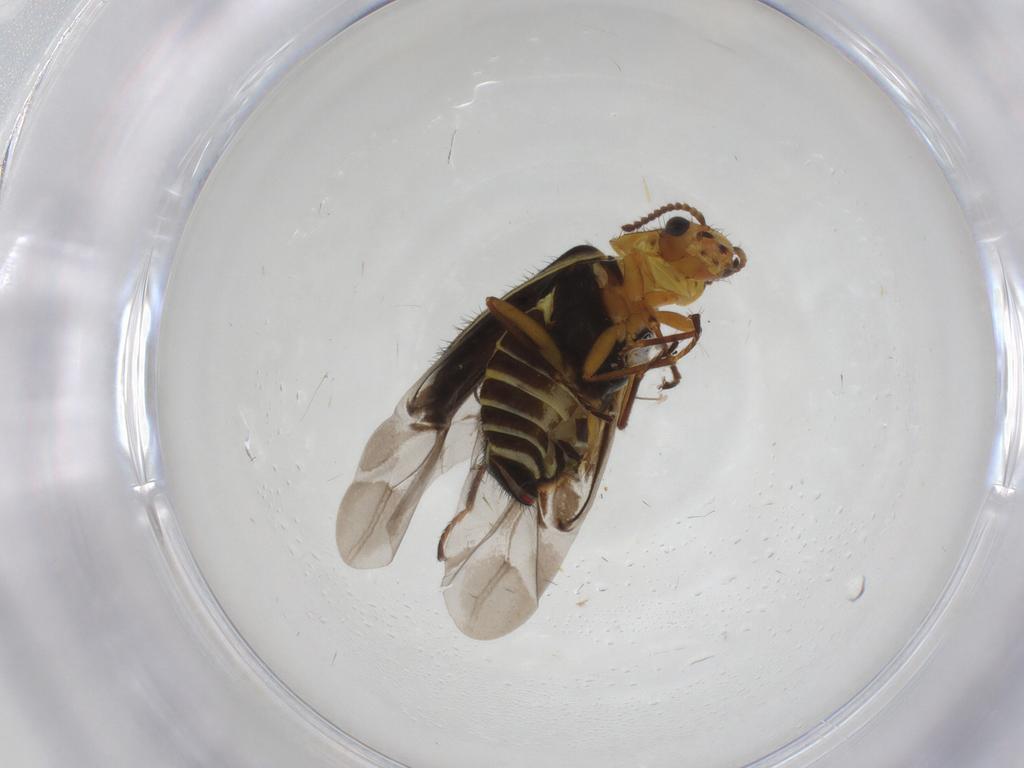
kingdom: Animalia
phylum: Arthropoda
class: Insecta
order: Coleoptera
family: Melyridae
